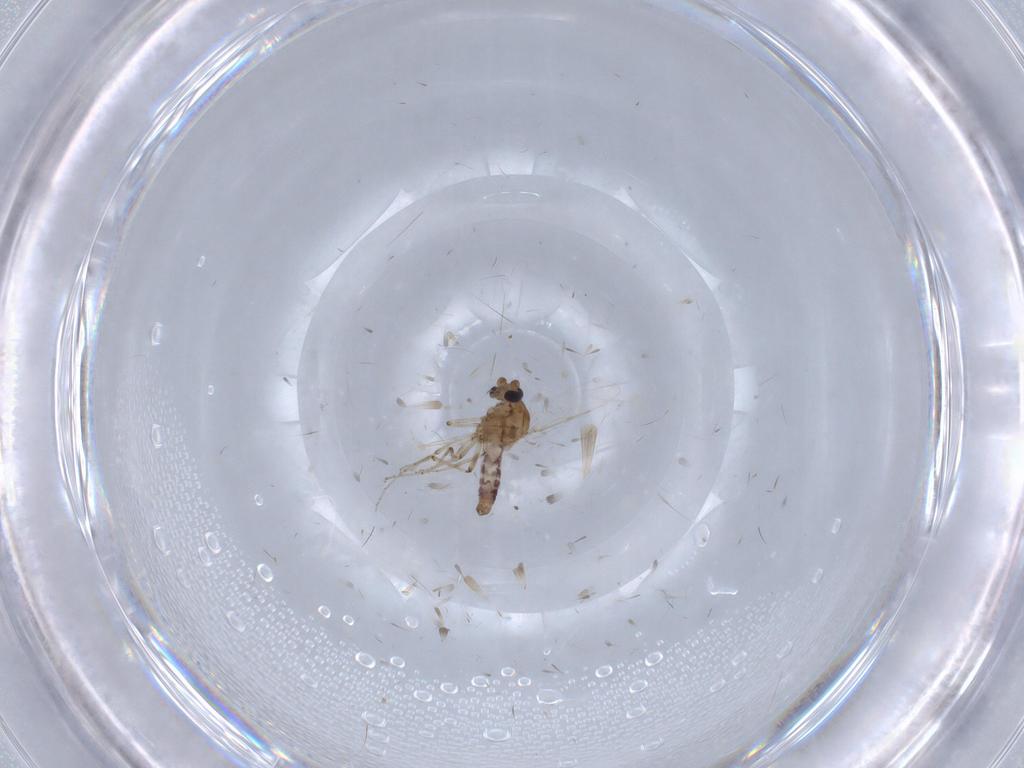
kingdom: Animalia
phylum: Arthropoda
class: Insecta
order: Diptera
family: Ceratopogonidae
